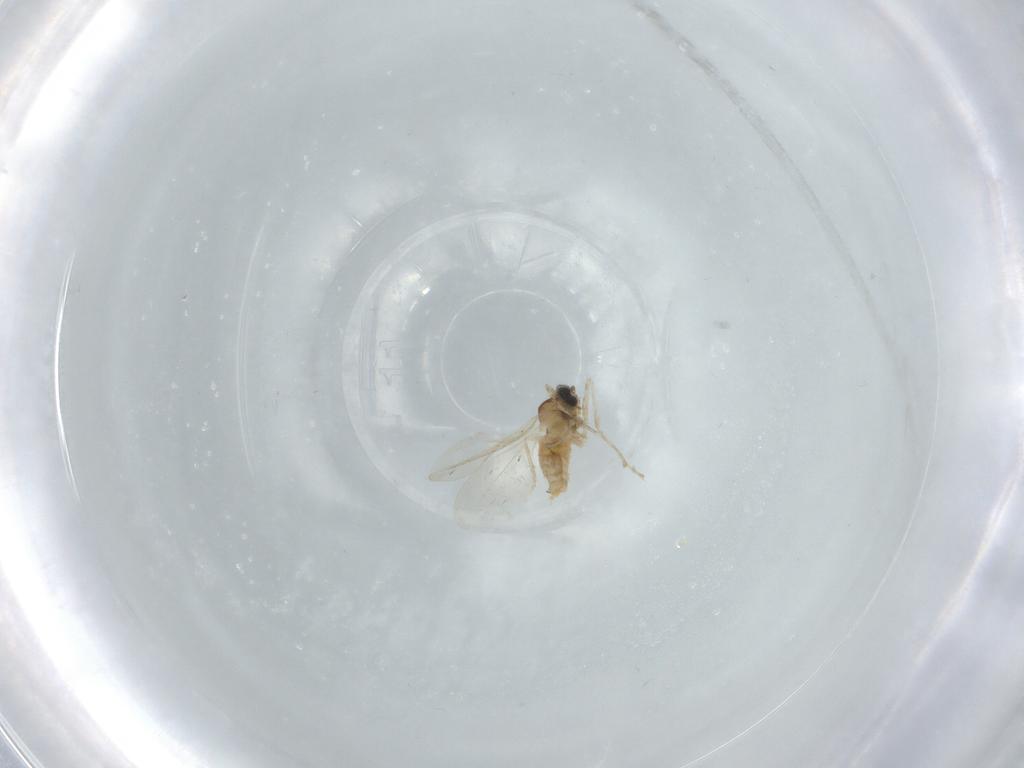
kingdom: Animalia
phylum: Arthropoda
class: Insecta
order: Diptera
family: Cecidomyiidae
